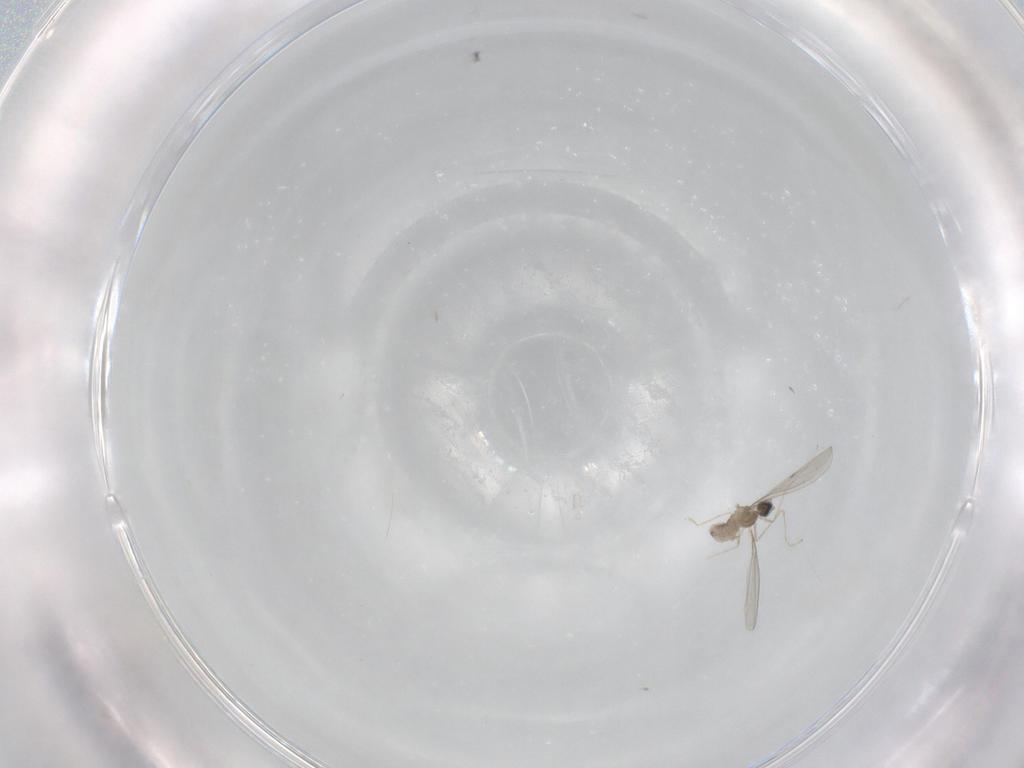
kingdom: Animalia
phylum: Arthropoda
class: Insecta
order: Diptera
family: Cecidomyiidae
